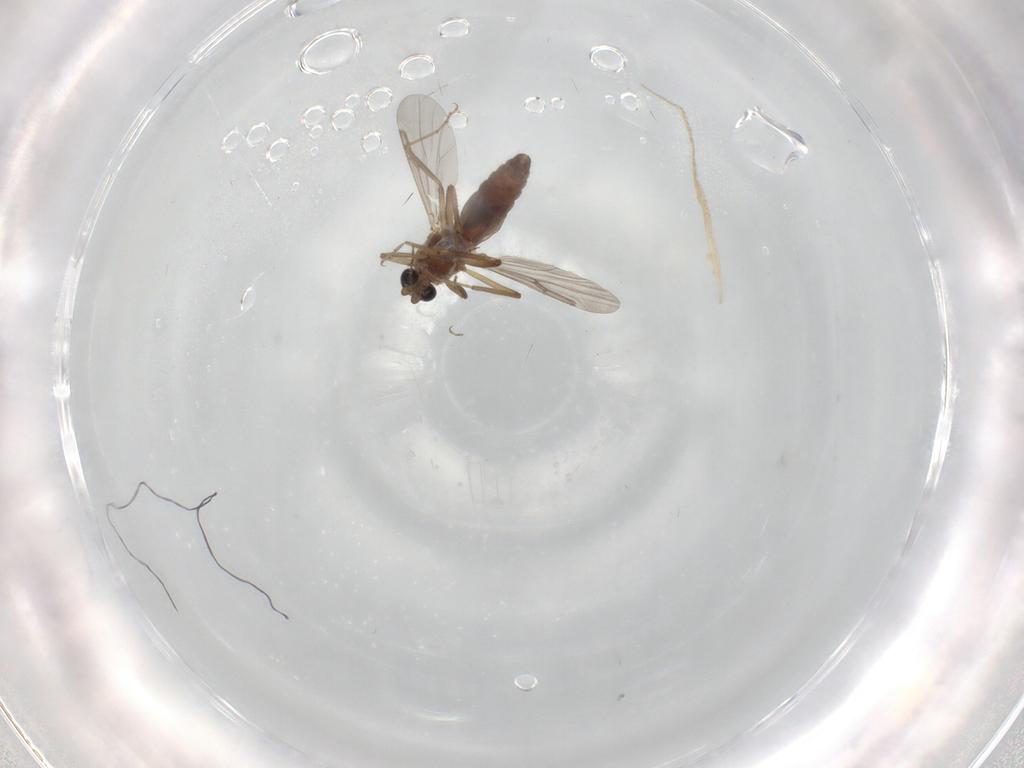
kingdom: Animalia
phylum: Arthropoda
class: Insecta
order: Diptera
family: Ceratopogonidae
